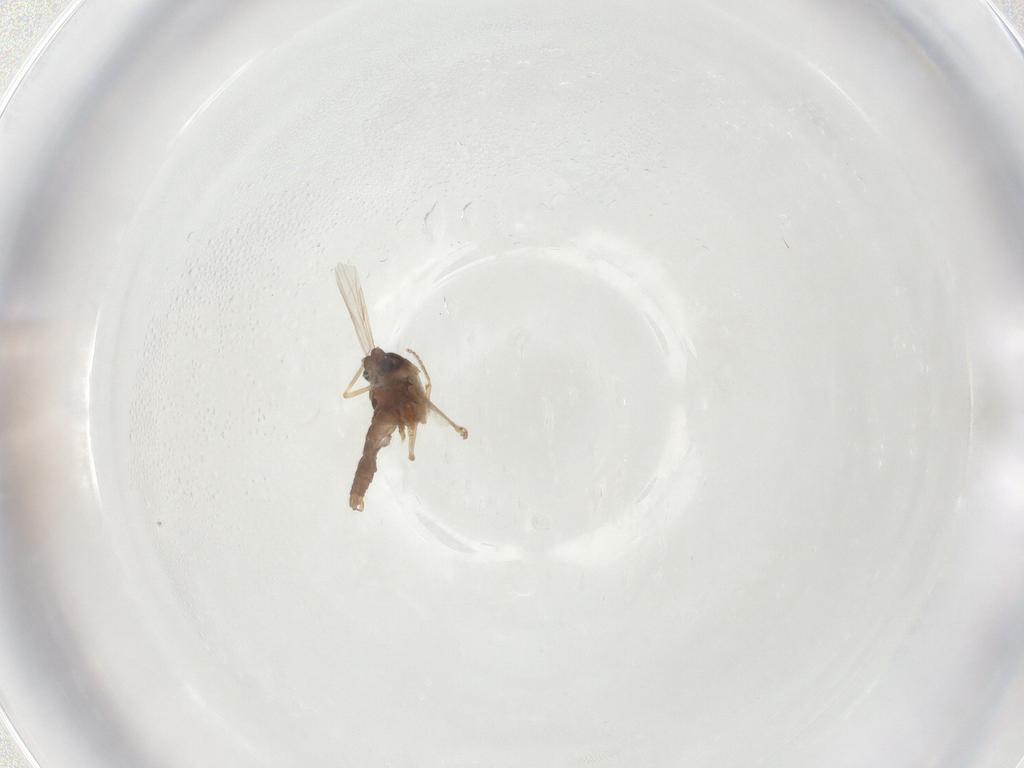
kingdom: Animalia
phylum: Arthropoda
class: Insecta
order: Diptera
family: Ceratopogonidae
